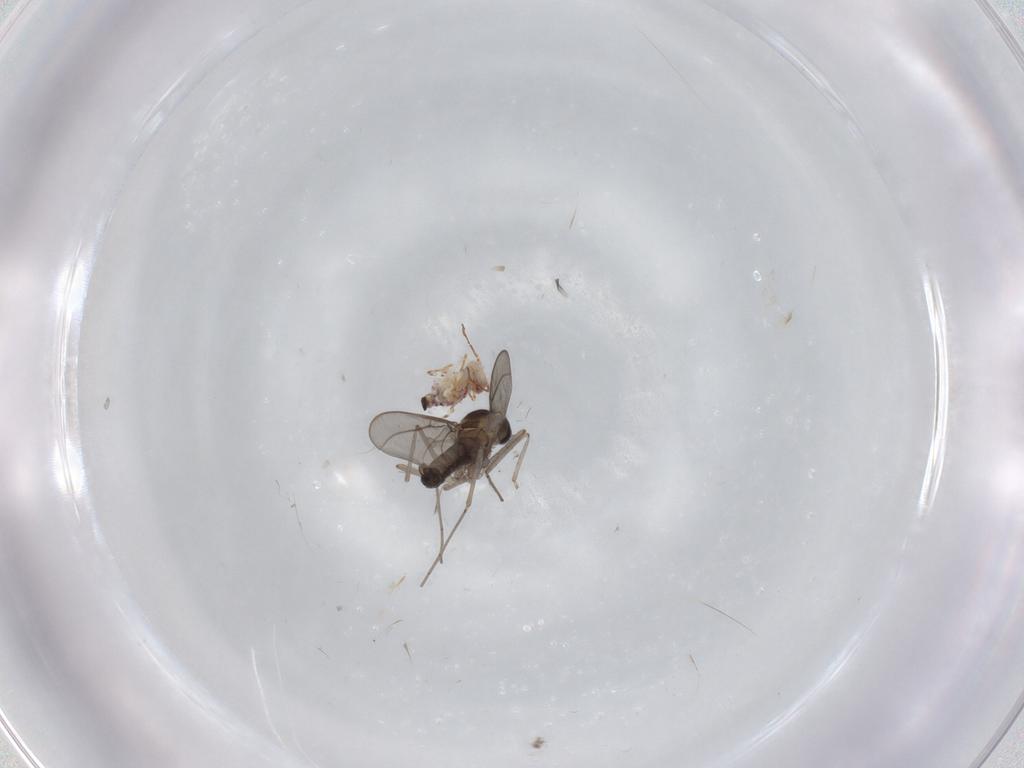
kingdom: Animalia
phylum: Arthropoda
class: Collembola
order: Symphypleona
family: Bourletiellidae
